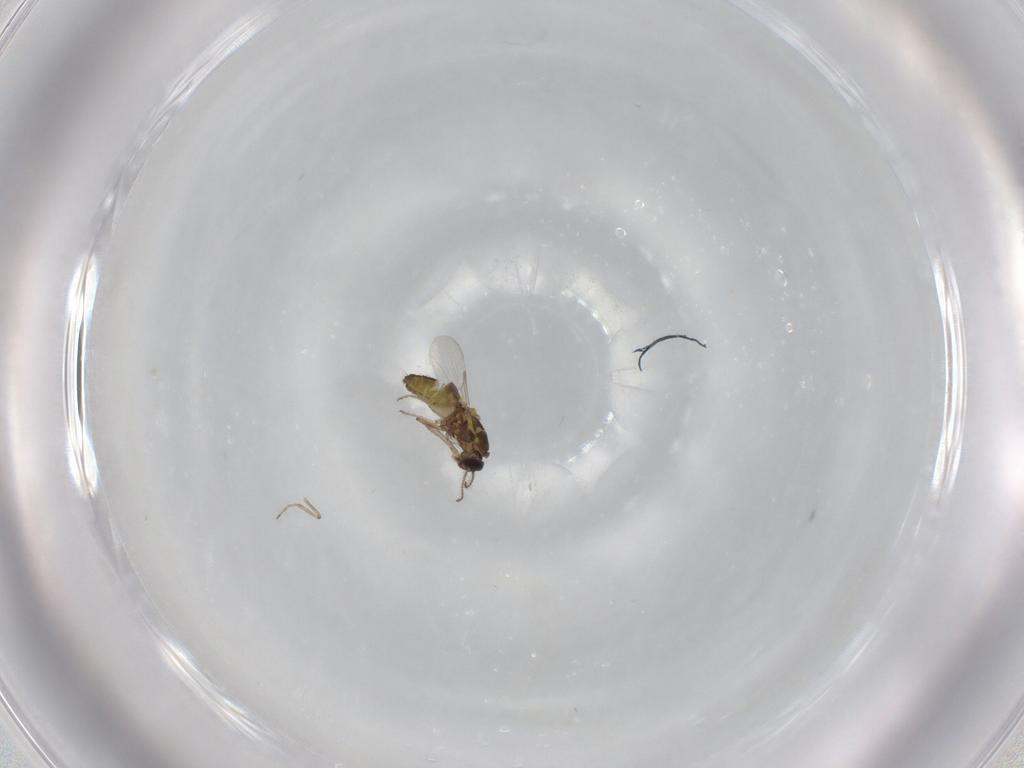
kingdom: Animalia
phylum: Arthropoda
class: Insecta
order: Diptera
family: Ceratopogonidae
